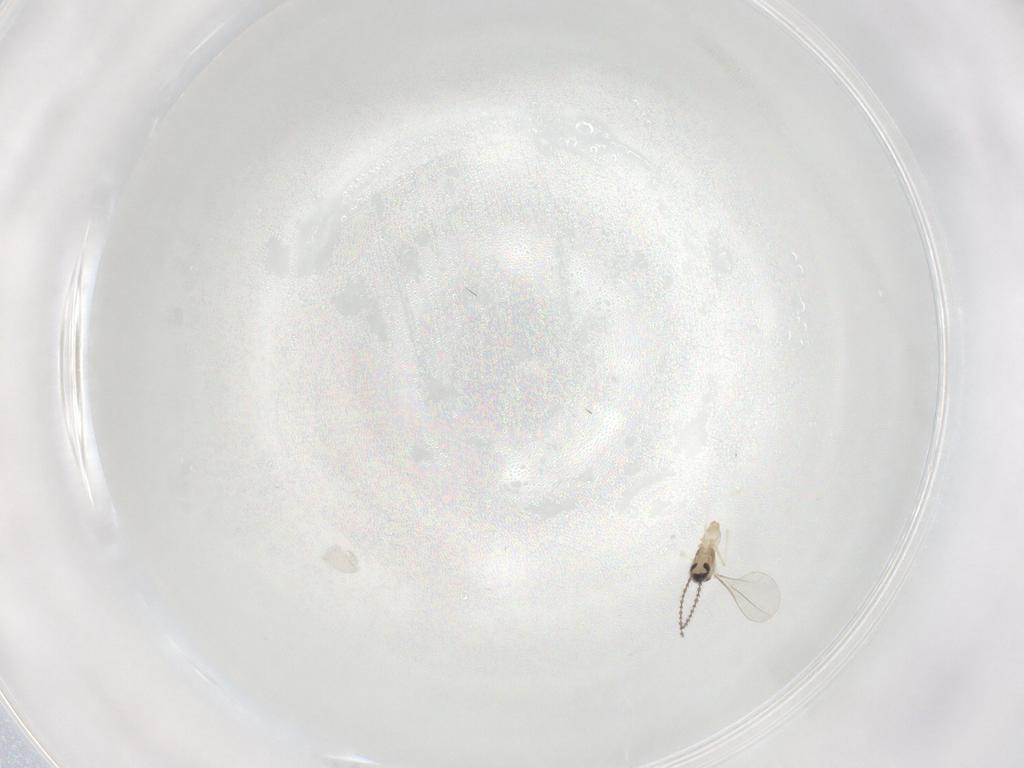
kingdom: Animalia
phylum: Arthropoda
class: Insecta
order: Diptera
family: Cecidomyiidae
